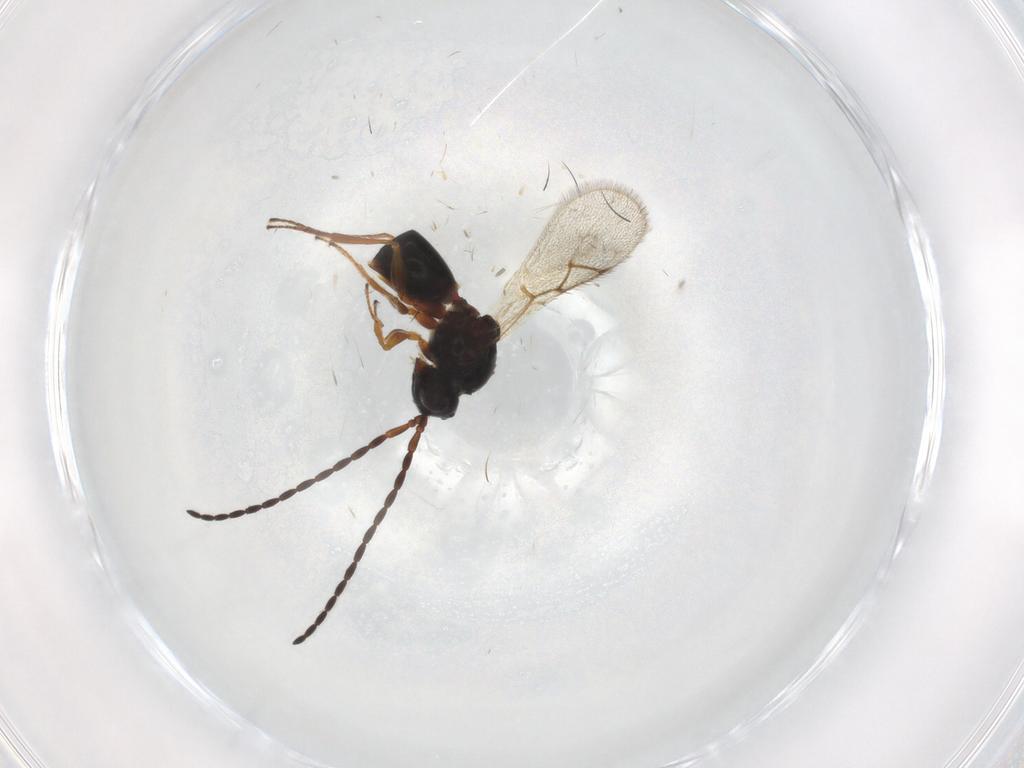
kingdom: Animalia
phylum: Arthropoda
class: Insecta
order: Hymenoptera
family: Figitidae
